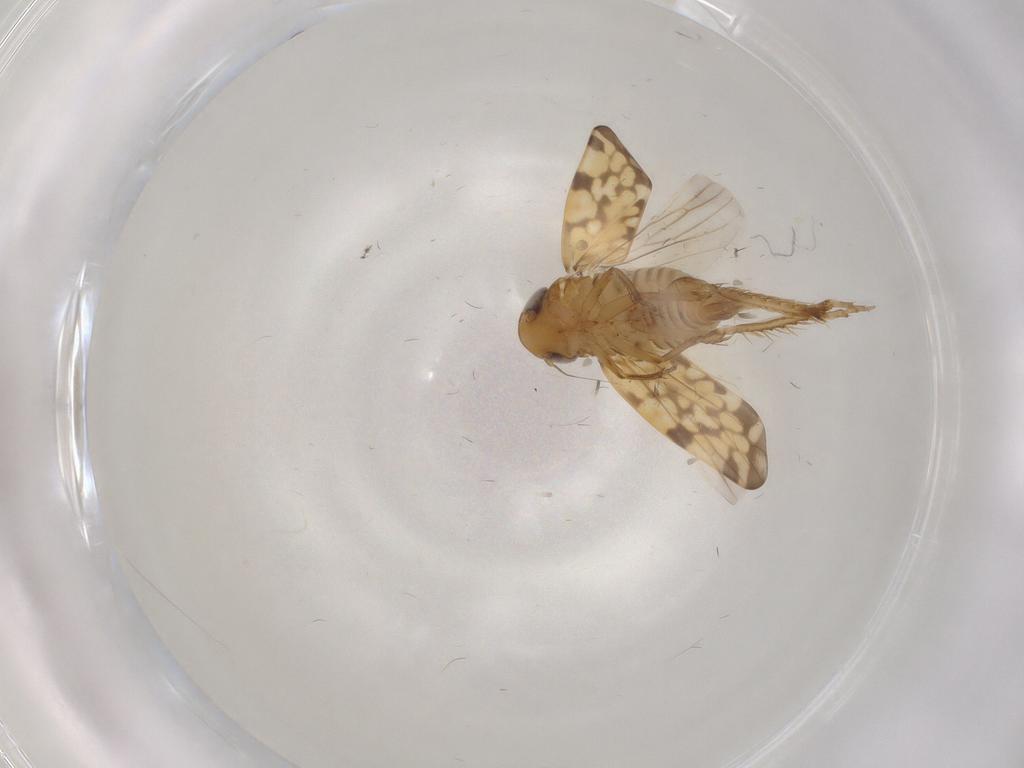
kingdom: Animalia
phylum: Arthropoda
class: Insecta
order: Hemiptera
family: Cicadellidae
